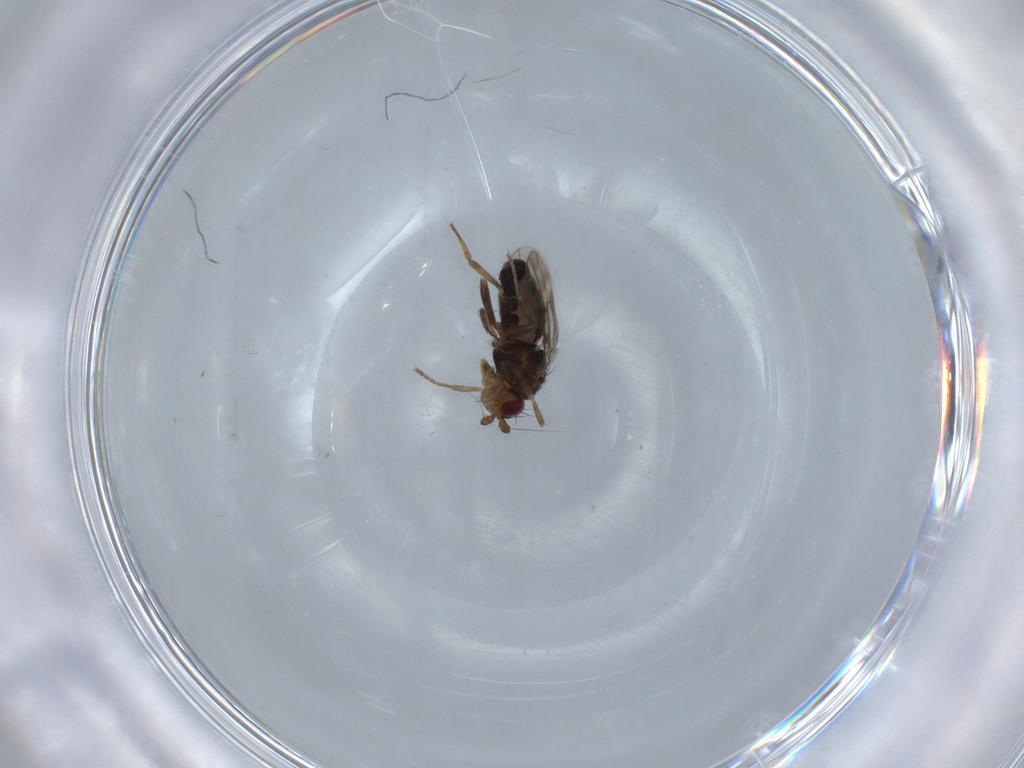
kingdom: Animalia
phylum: Arthropoda
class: Insecta
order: Diptera
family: Sphaeroceridae
